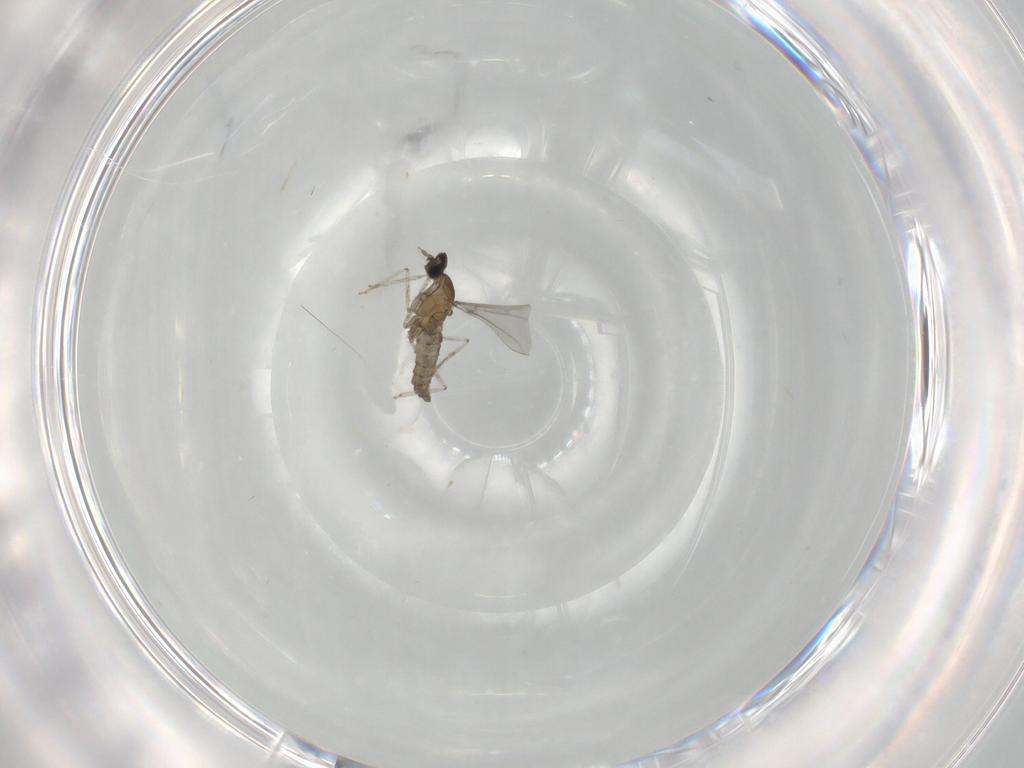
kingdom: Animalia
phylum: Arthropoda
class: Insecta
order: Diptera
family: Cecidomyiidae
